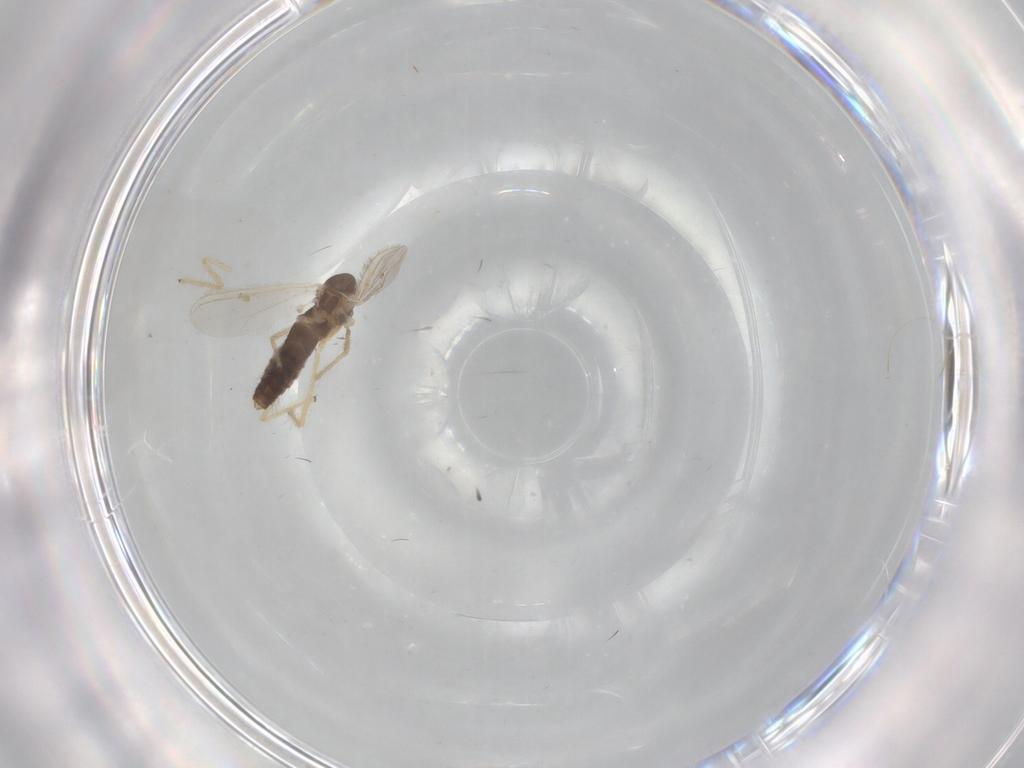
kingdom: Animalia
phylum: Arthropoda
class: Insecta
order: Diptera
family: Chironomidae
